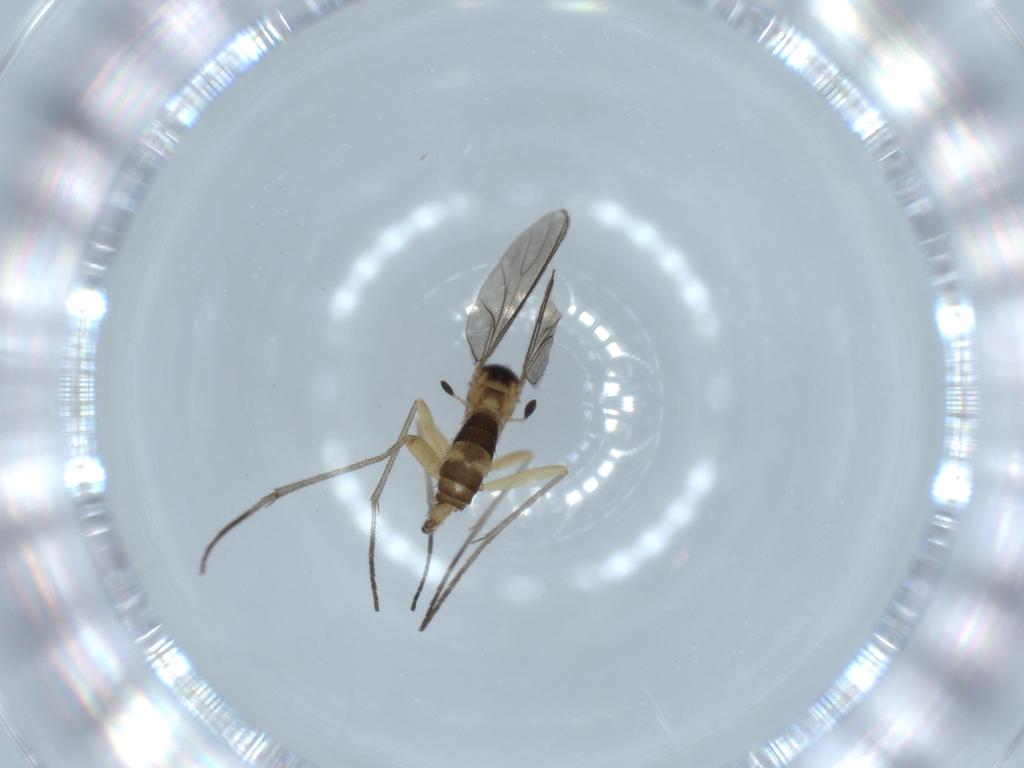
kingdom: Animalia
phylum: Arthropoda
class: Insecta
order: Diptera
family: Sciaridae
